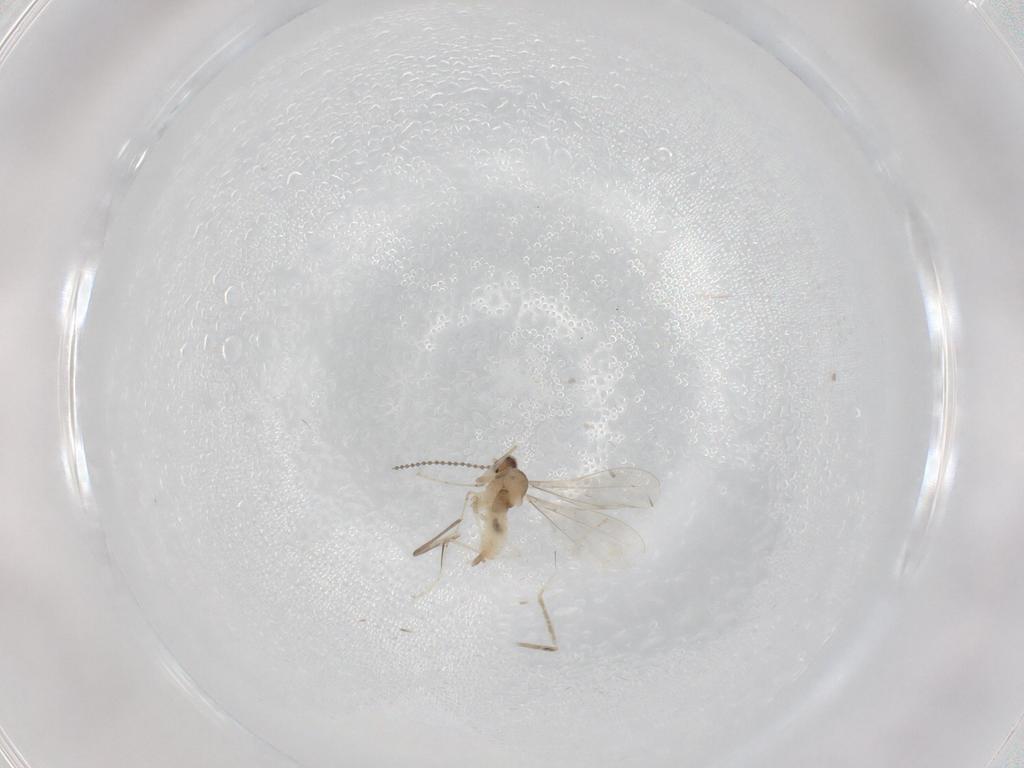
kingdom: Animalia
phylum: Arthropoda
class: Insecta
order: Diptera
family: Cecidomyiidae
